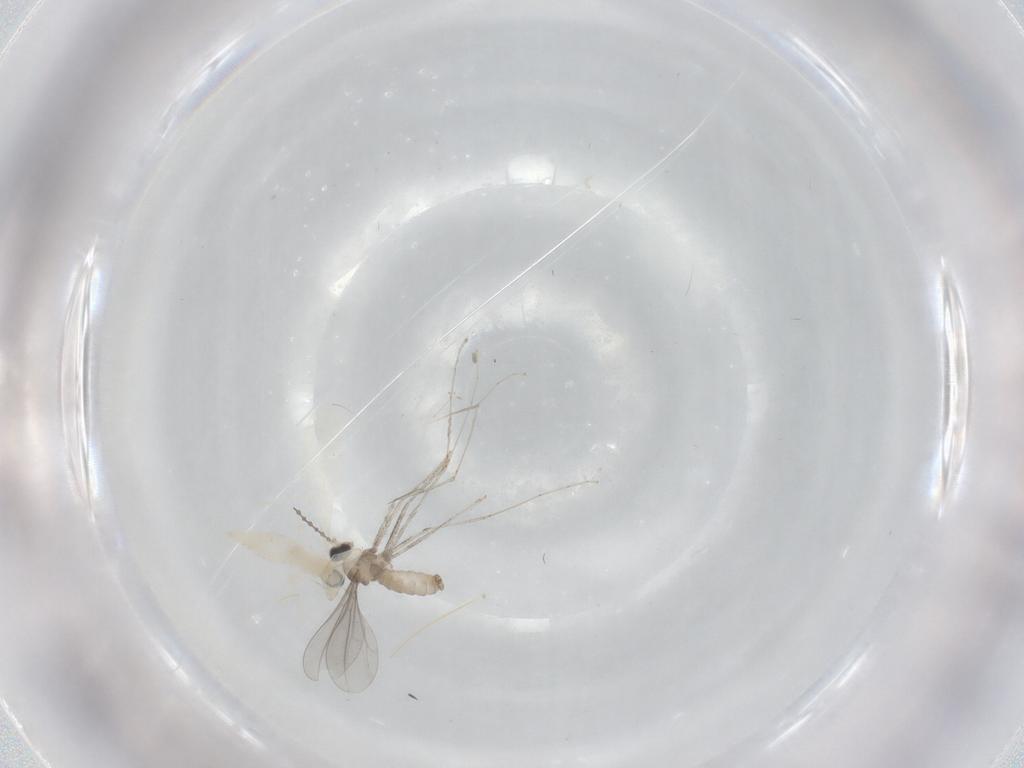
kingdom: Animalia
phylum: Arthropoda
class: Insecta
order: Diptera
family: Cecidomyiidae
